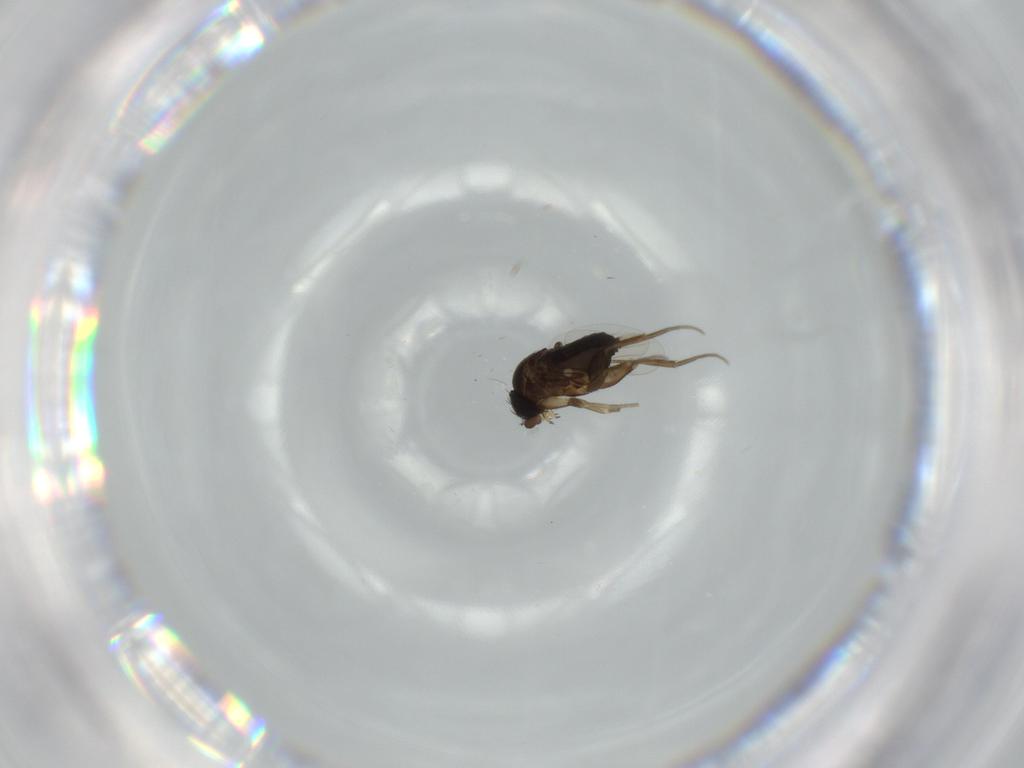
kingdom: Animalia
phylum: Arthropoda
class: Insecta
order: Diptera
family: Phoridae
